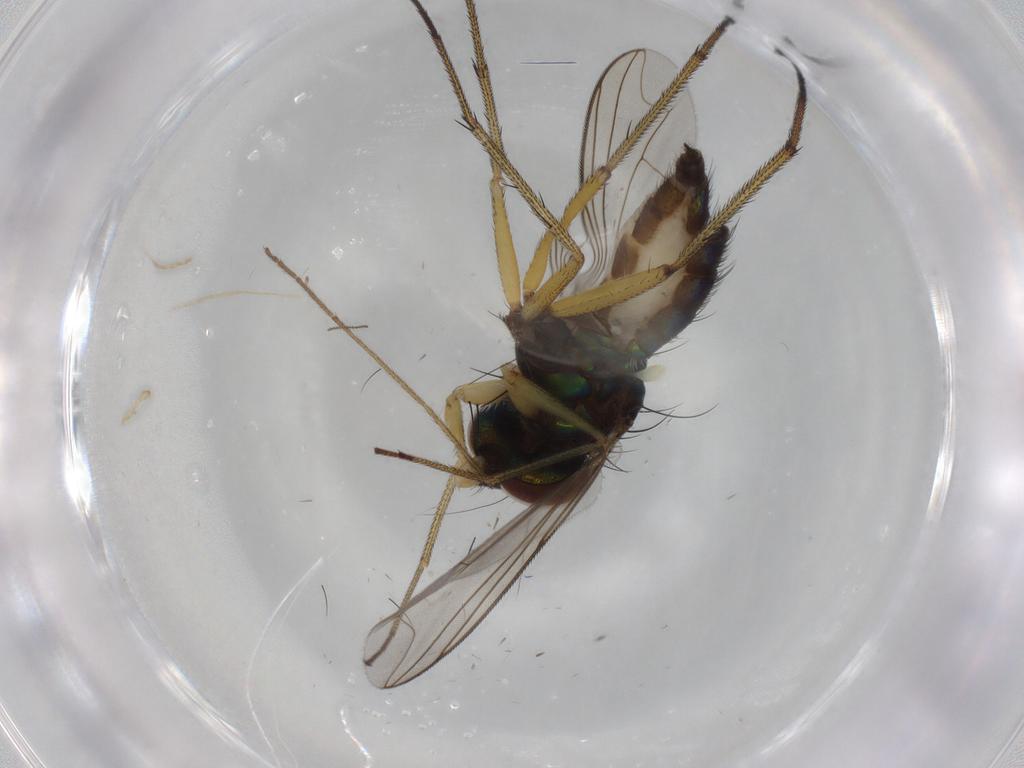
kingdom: Animalia
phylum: Arthropoda
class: Insecta
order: Diptera
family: Dolichopodidae
